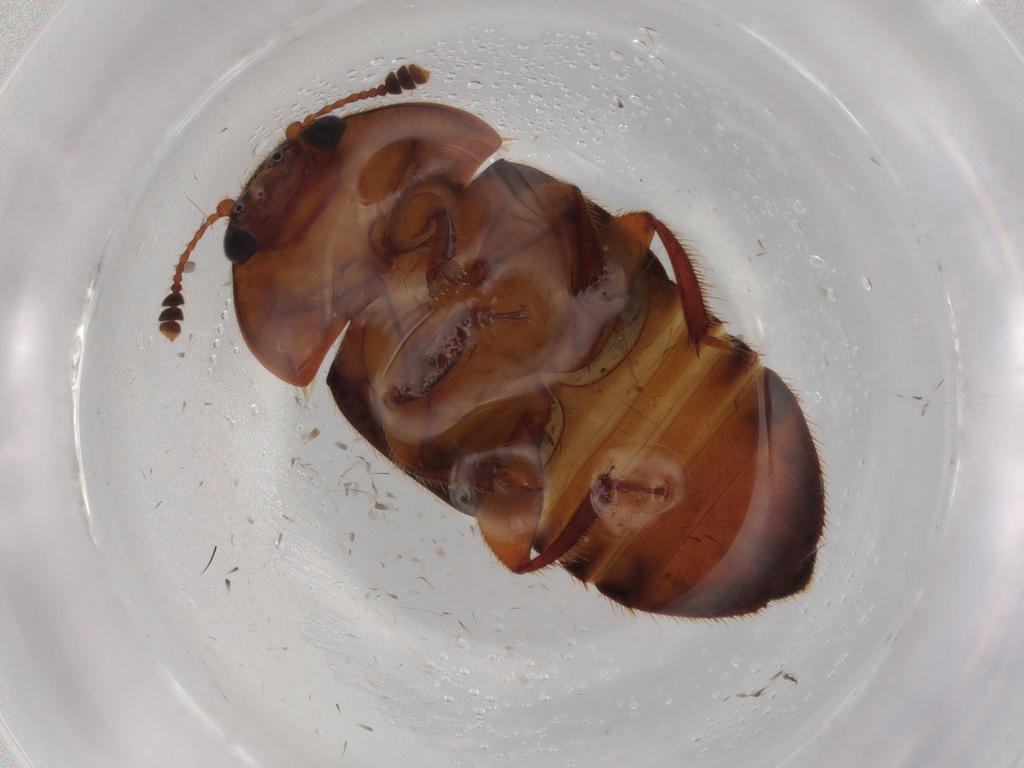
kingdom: Animalia
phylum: Arthropoda
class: Insecta
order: Coleoptera
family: Nitidulidae
